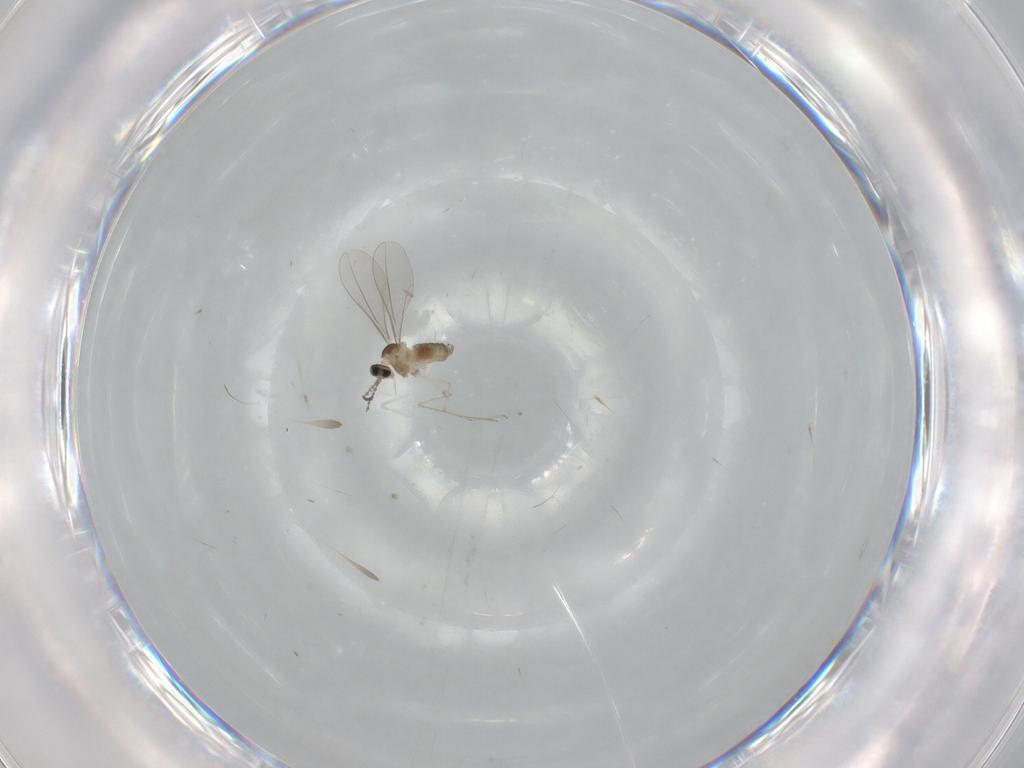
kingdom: Animalia
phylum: Arthropoda
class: Insecta
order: Diptera
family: Cecidomyiidae
